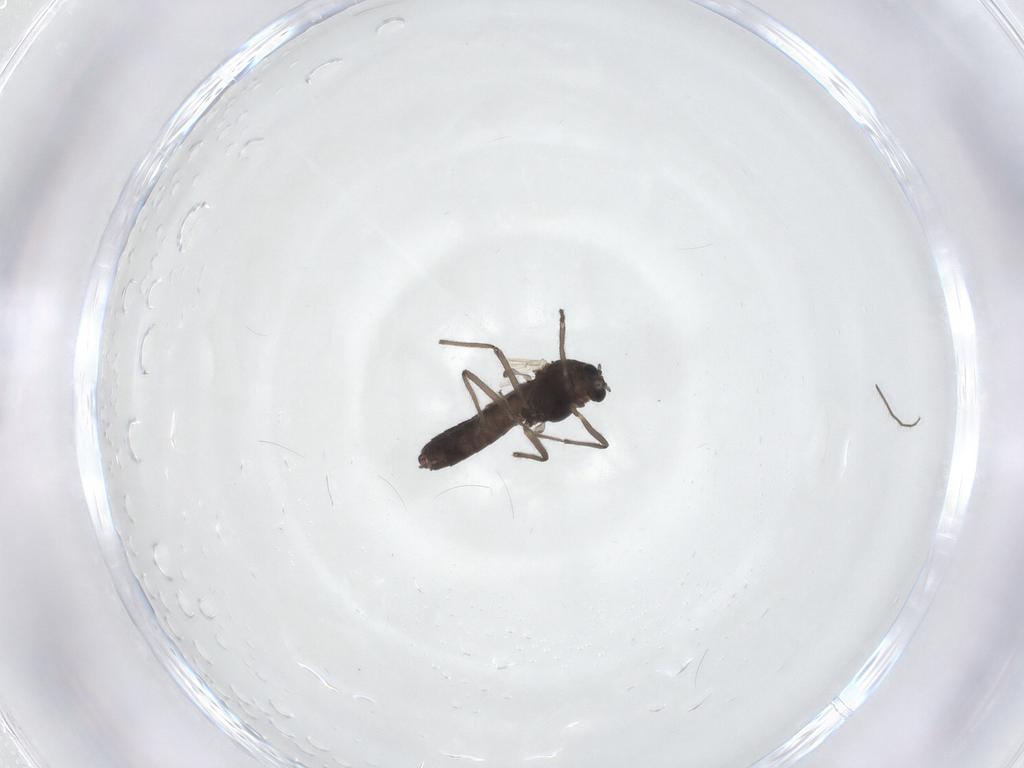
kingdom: Animalia
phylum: Arthropoda
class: Insecta
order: Diptera
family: Chironomidae
